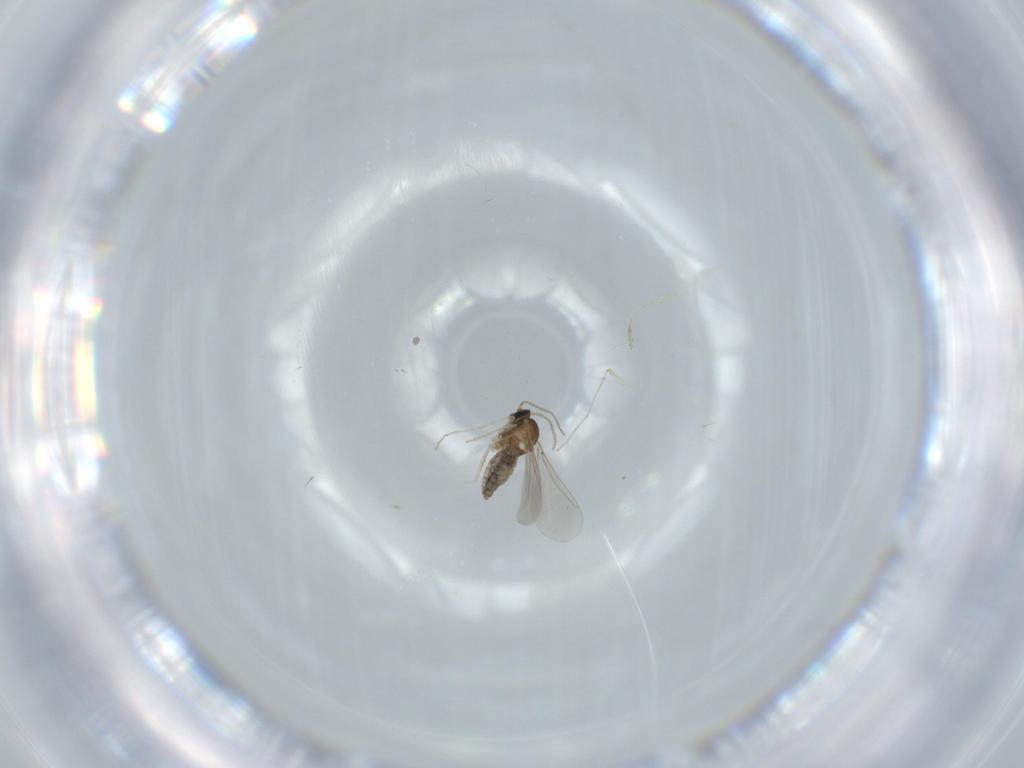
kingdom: Animalia
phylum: Arthropoda
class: Insecta
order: Diptera
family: Cecidomyiidae
